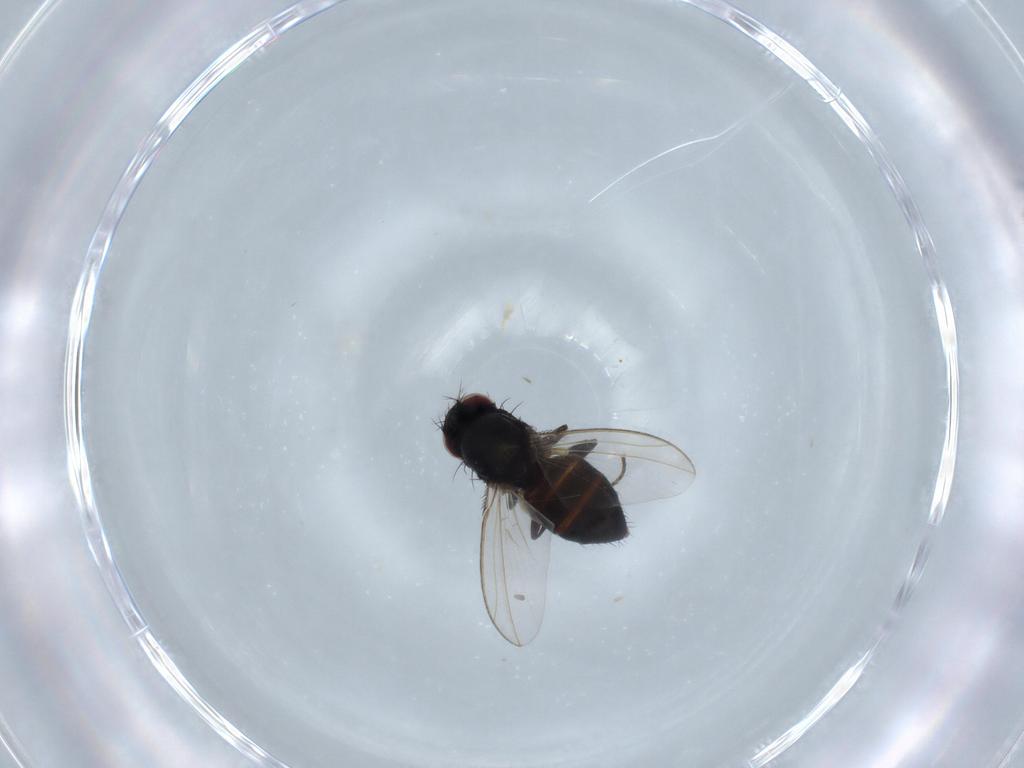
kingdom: Animalia
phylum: Arthropoda
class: Insecta
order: Diptera
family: Carnidae
